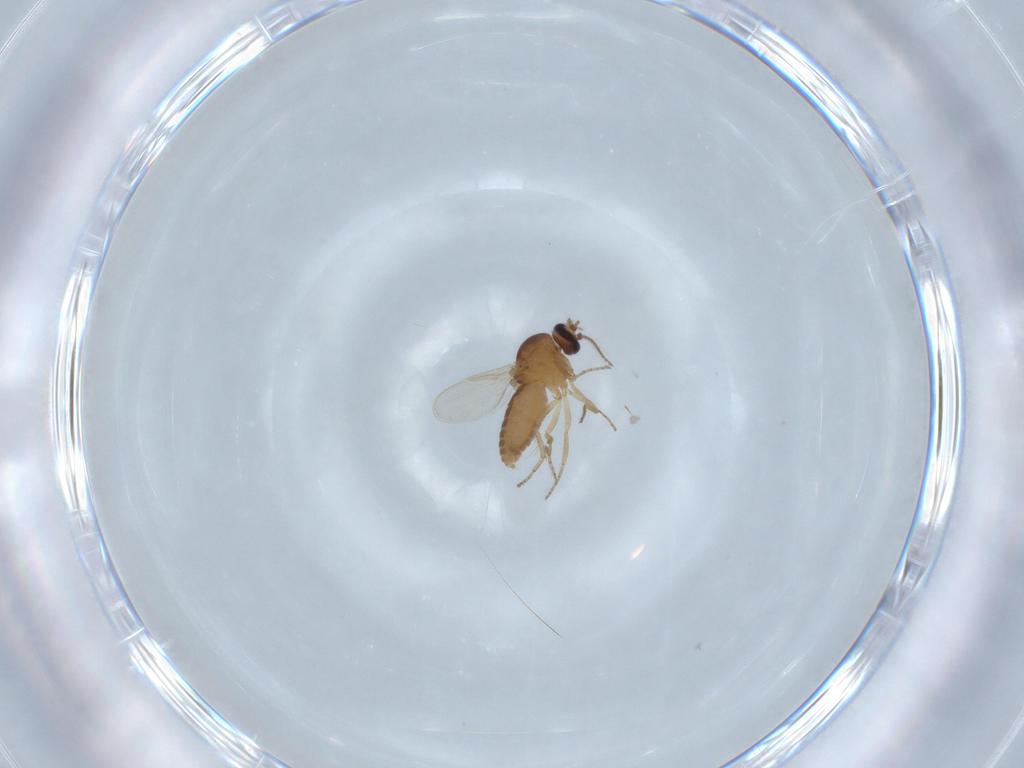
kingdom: Animalia
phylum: Arthropoda
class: Insecta
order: Diptera
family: Ceratopogonidae
